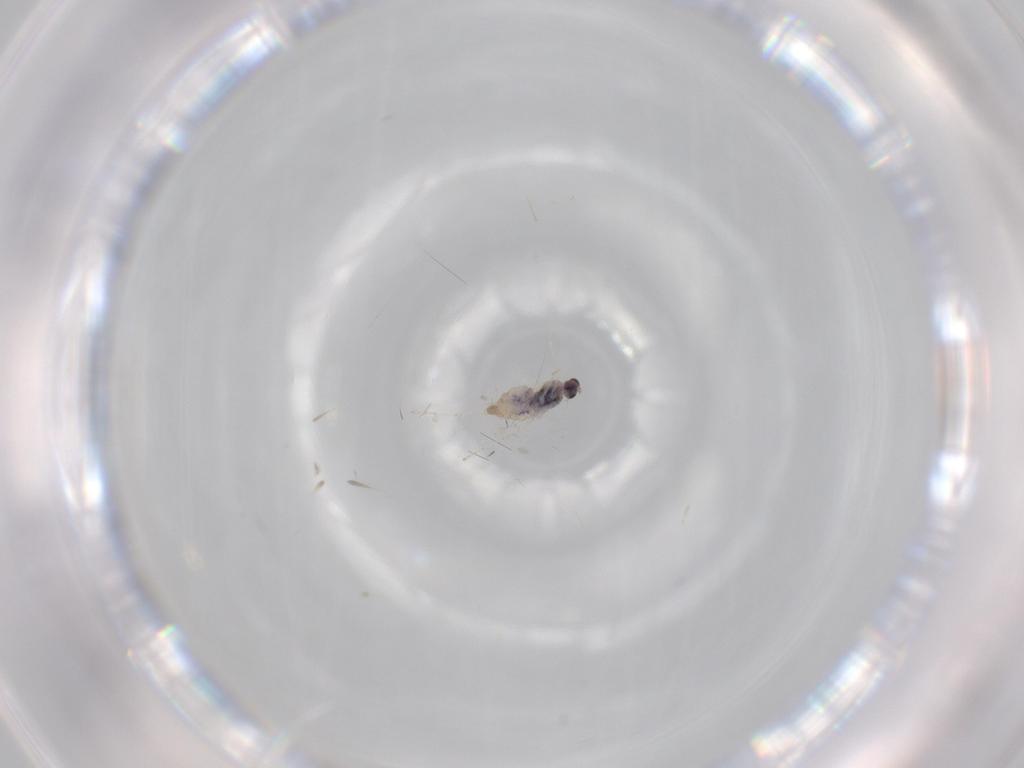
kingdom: Animalia
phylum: Arthropoda
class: Insecta
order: Diptera
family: Cecidomyiidae
